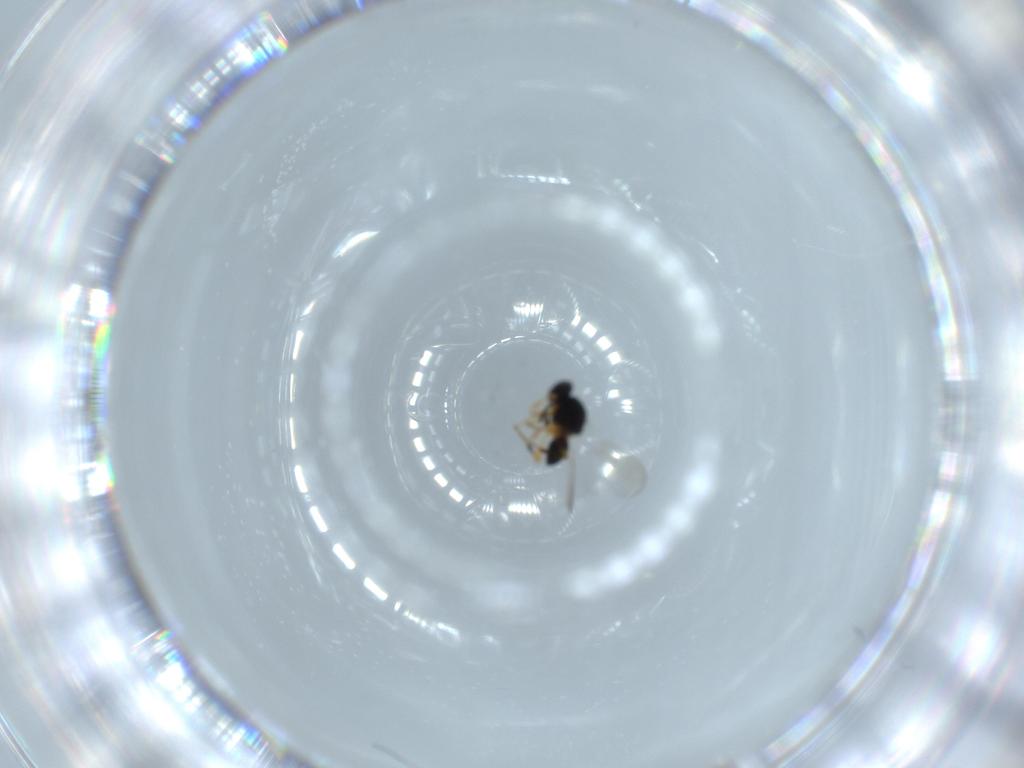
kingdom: Animalia
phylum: Arthropoda
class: Insecta
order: Hymenoptera
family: Platygastridae
